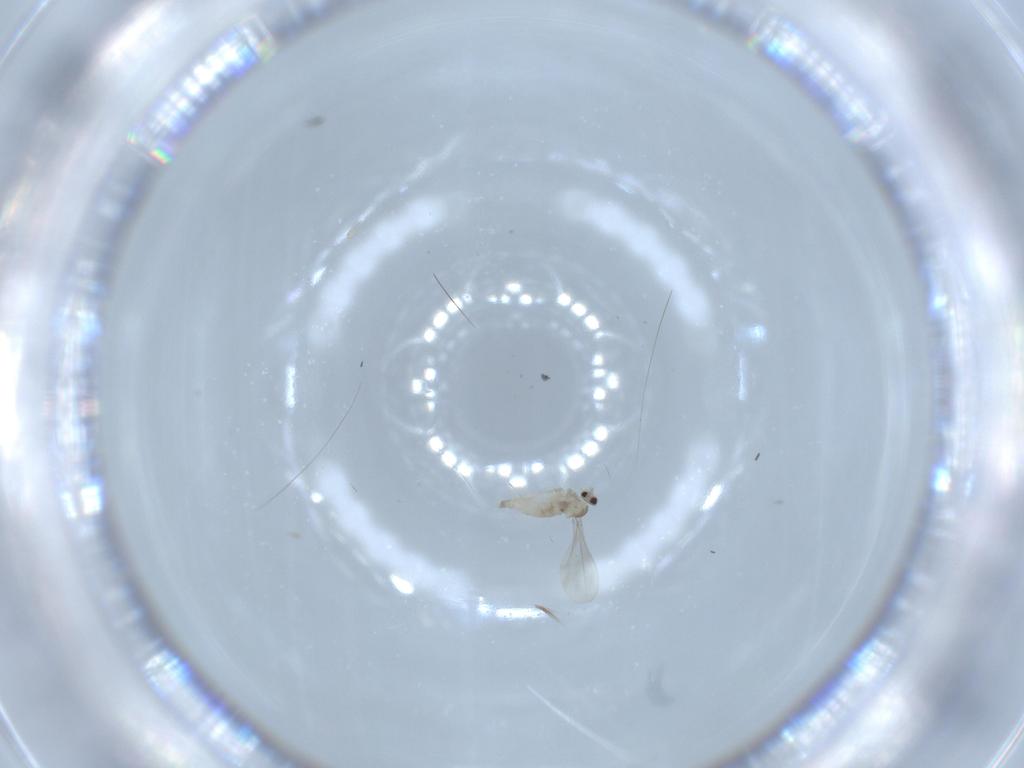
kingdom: Animalia
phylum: Arthropoda
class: Insecta
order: Diptera
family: Cecidomyiidae
